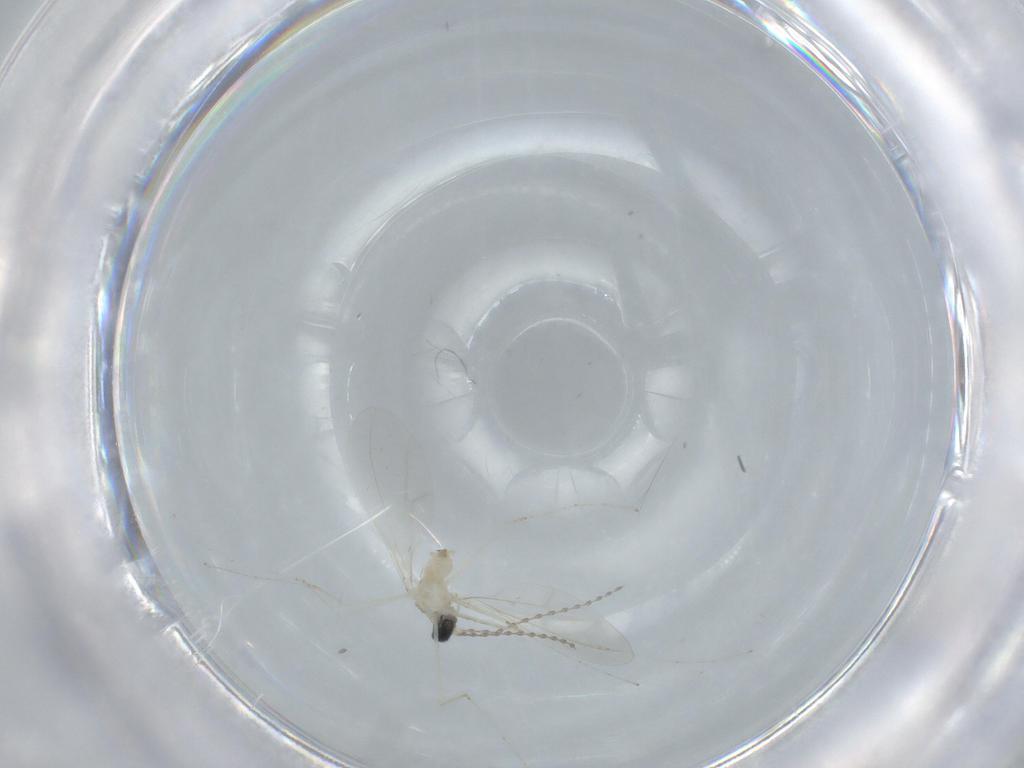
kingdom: Animalia
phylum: Arthropoda
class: Insecta
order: Diptera
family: Cecidomyiidae
